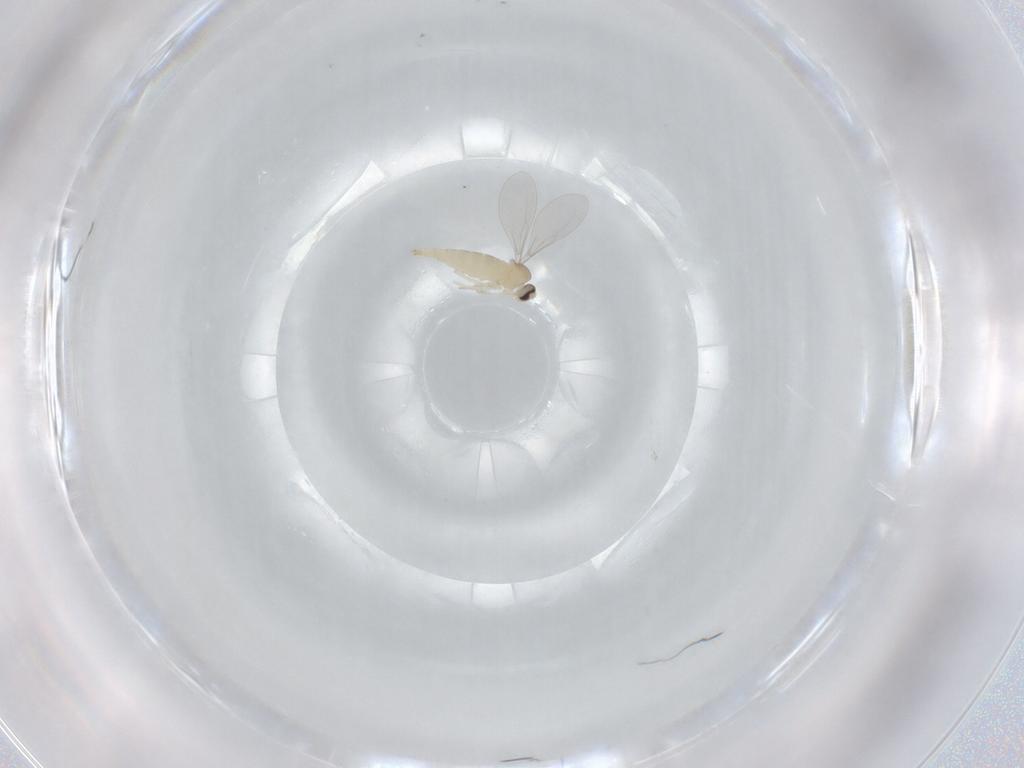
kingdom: Animalia
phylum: Arthropoda
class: Insecta
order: Diptera
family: Cecidomyiidae
